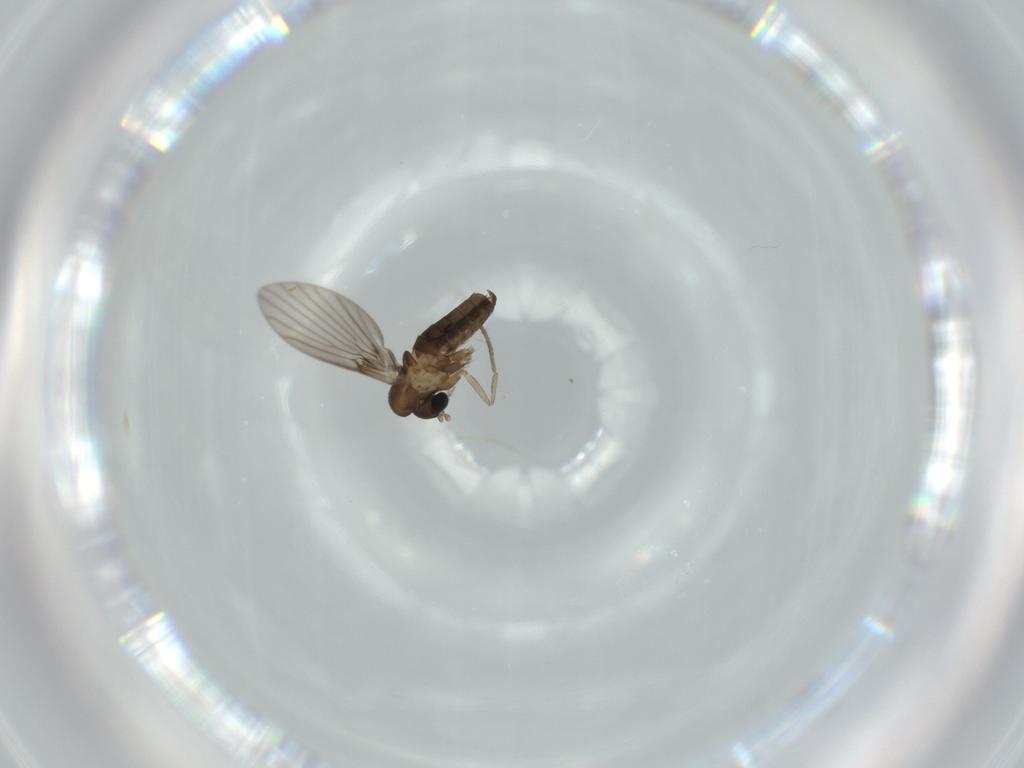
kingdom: Animalia
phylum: Arthropoda
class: Insecta
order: Diptera
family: Psychodidae
